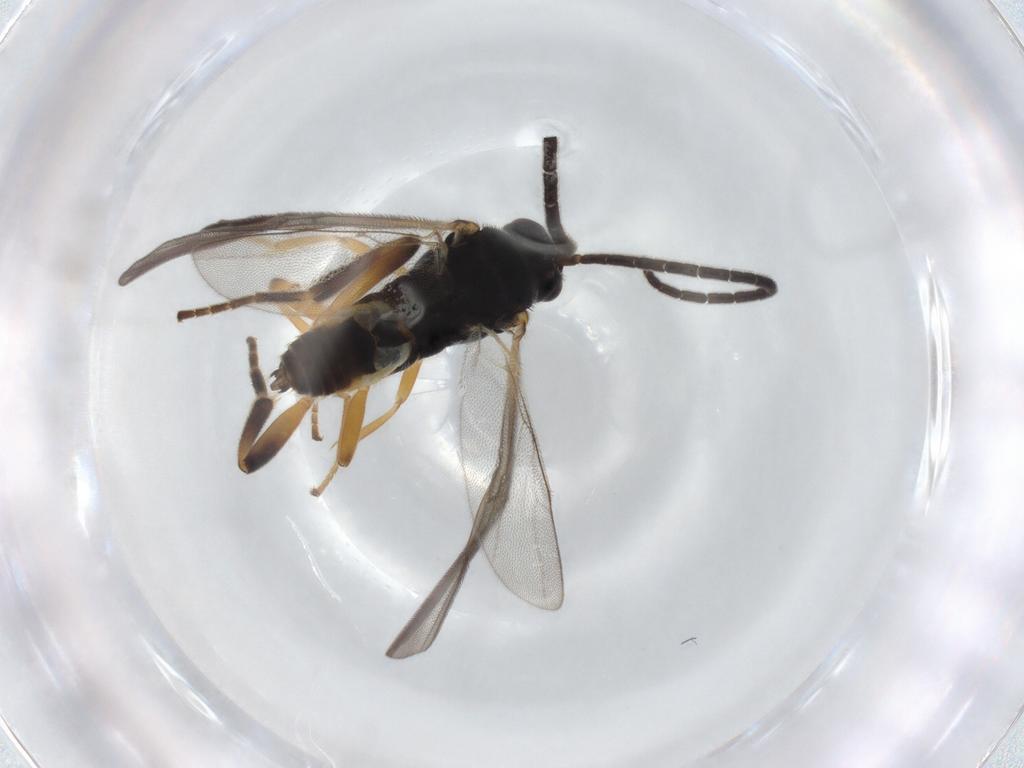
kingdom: Animalia
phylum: Arthropoda
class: Insecta
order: Hymenoptera
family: Braconidae
